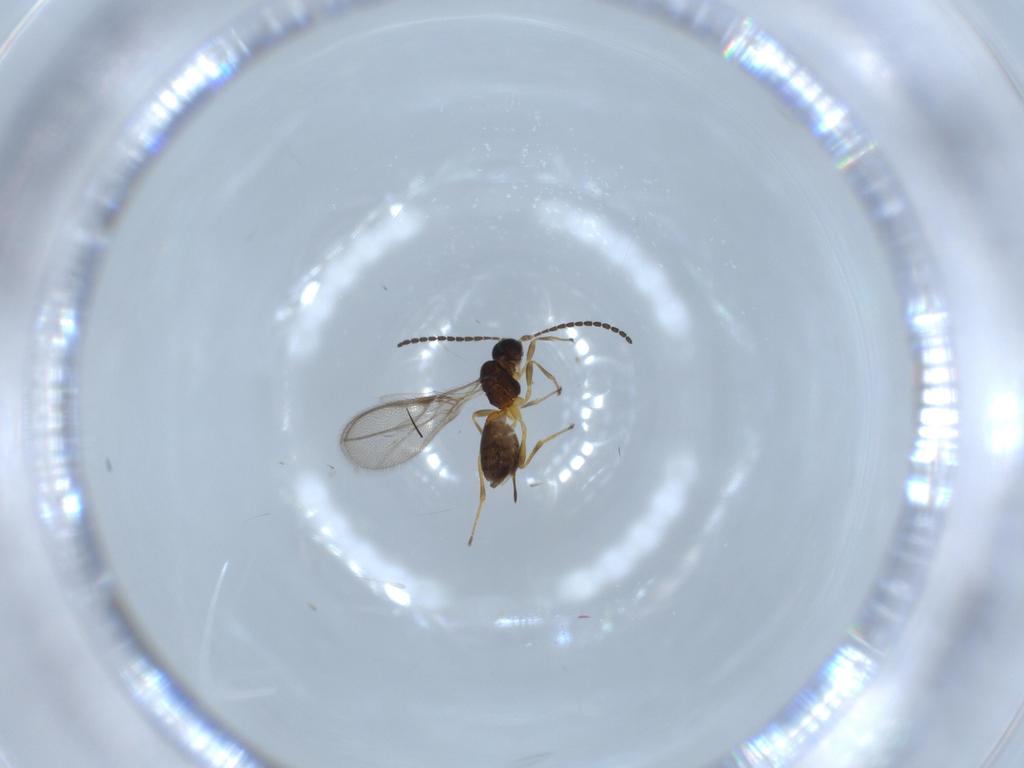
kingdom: Animalia
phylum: Arthropoda
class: Insecta
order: Hymenoptera
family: Braconidae
